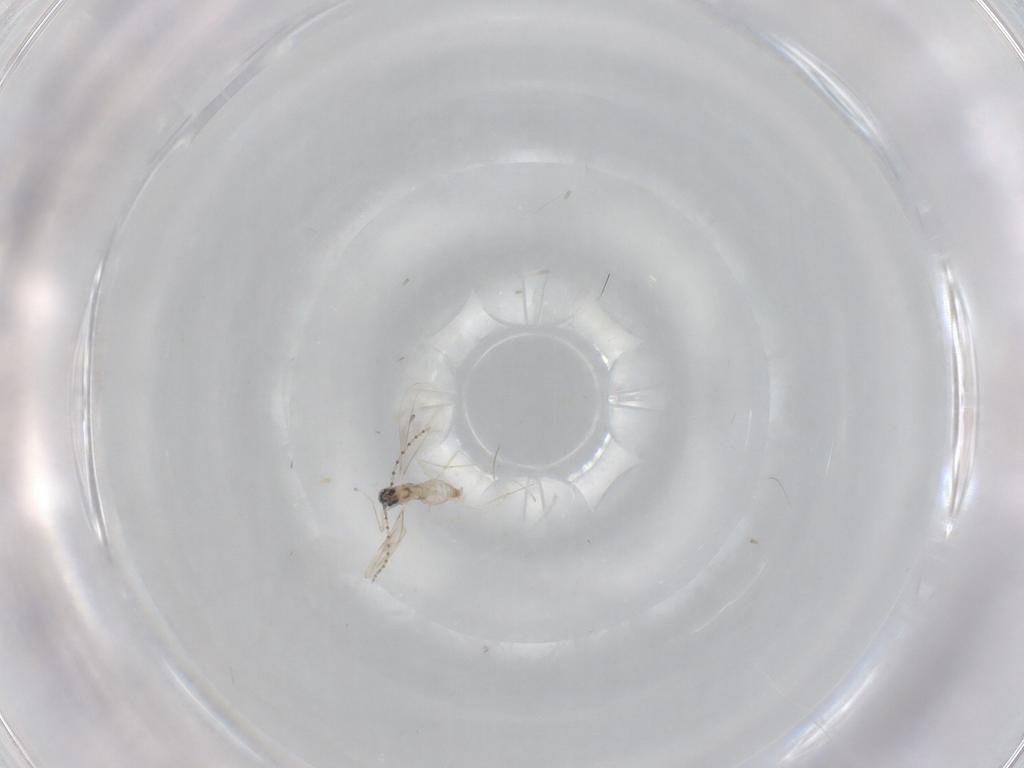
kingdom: Animalia
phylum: Arthropoda
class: Insecta
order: Diptera
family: Cecidomyiidae
